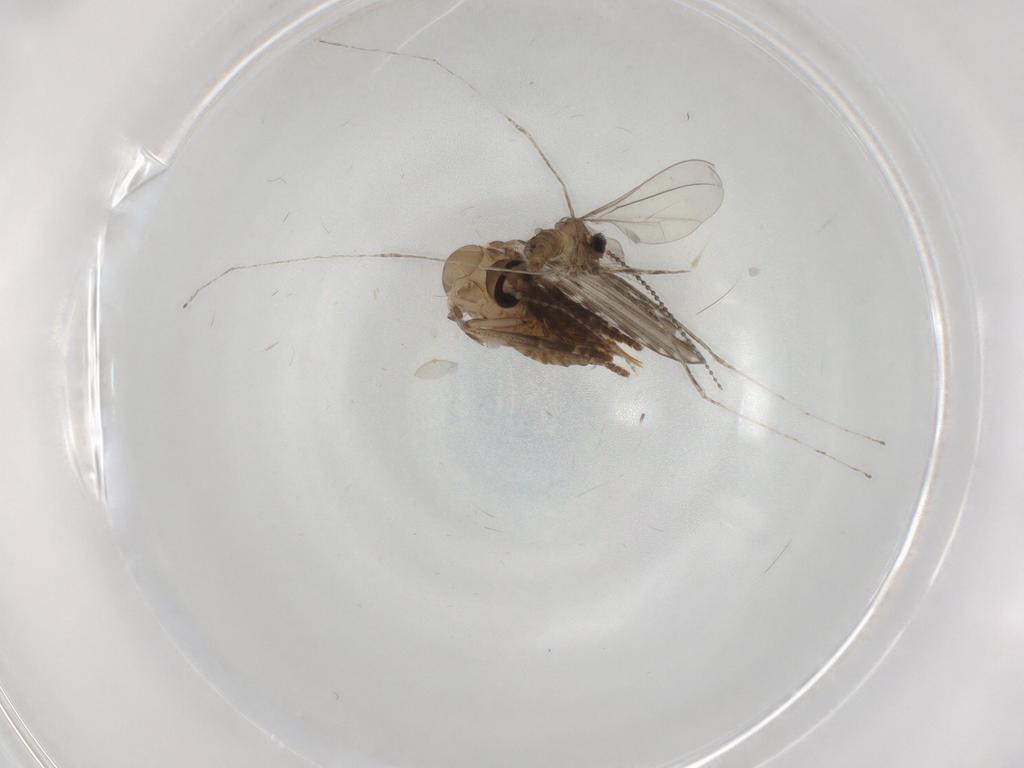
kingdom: Animalia
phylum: Arthropoda
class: Insecta
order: Diptera
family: Psychodidae
